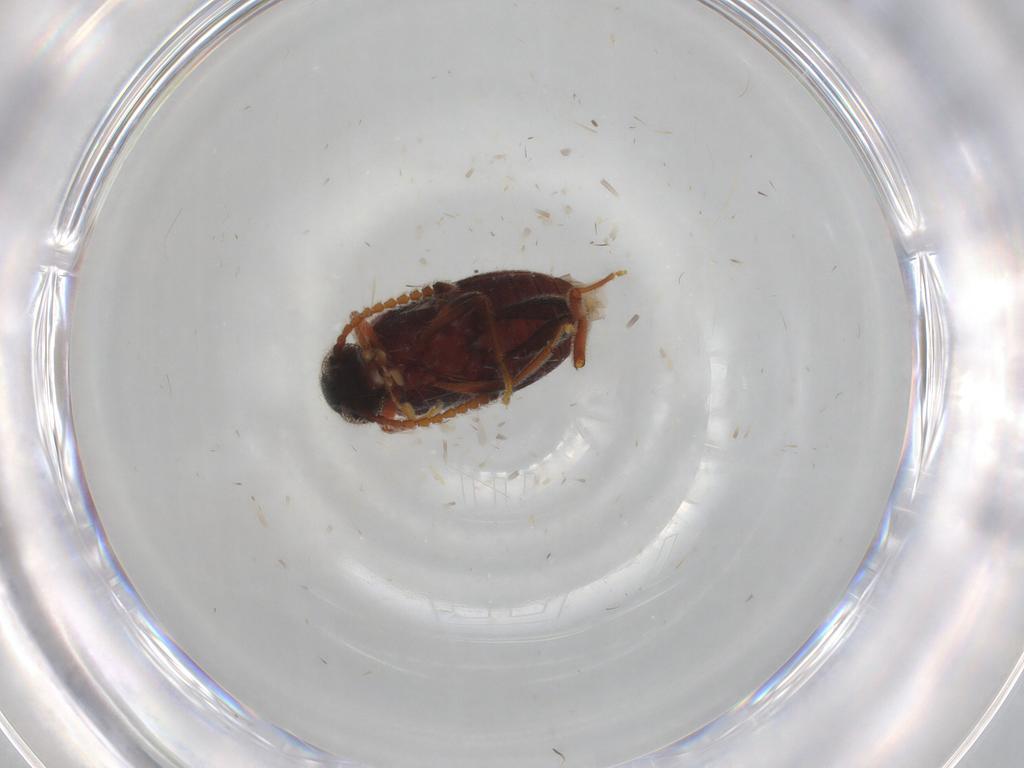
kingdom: Animalia
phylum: Arthropoda
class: Insecta
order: Coleoptera
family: Aderidae
